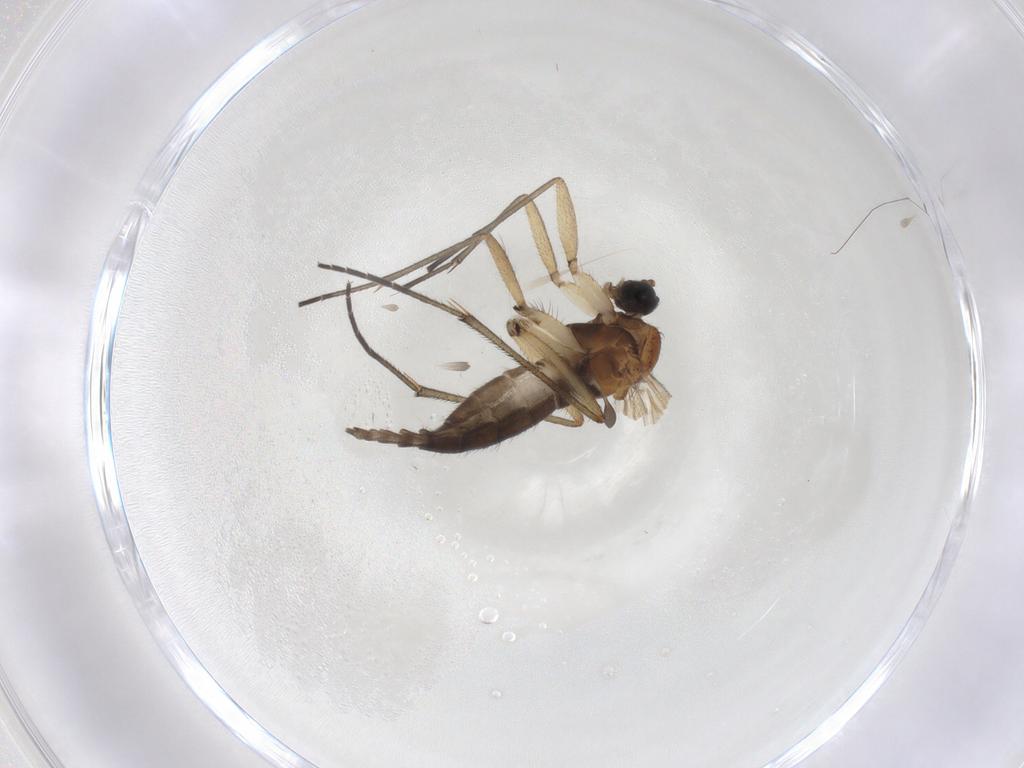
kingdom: Animalia
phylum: Arthropoda
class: Insecta
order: Diptera
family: Sciaridae
